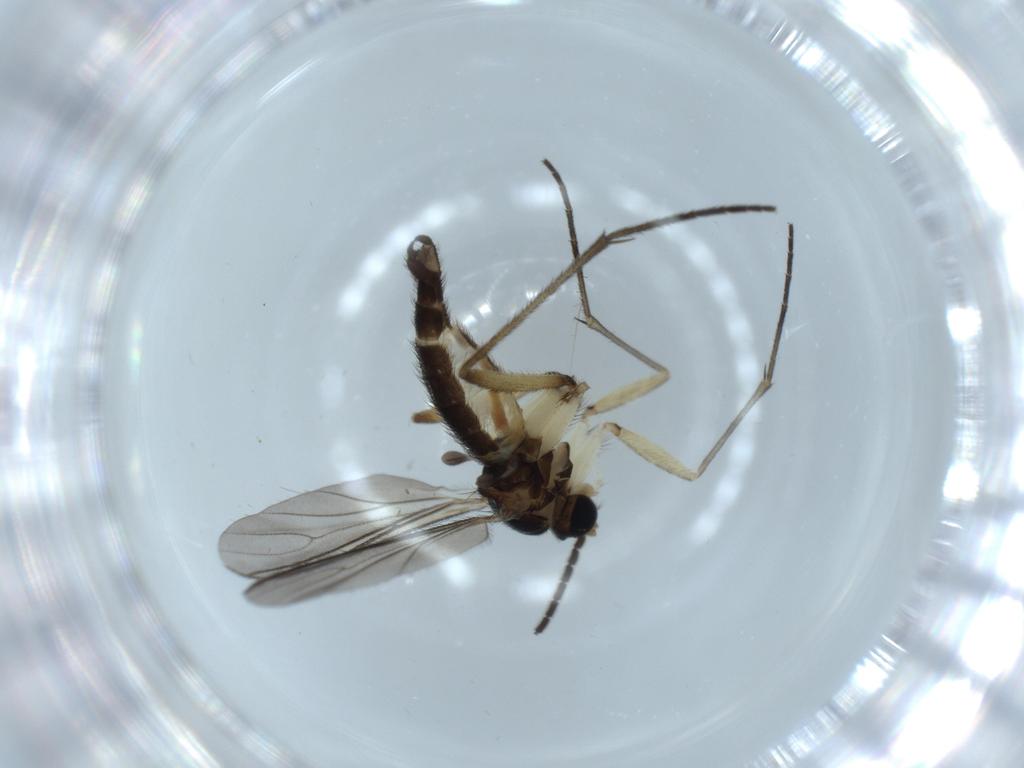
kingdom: Animalia
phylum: Arthropoda
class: Insecta
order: Diptera
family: Sciaridae
